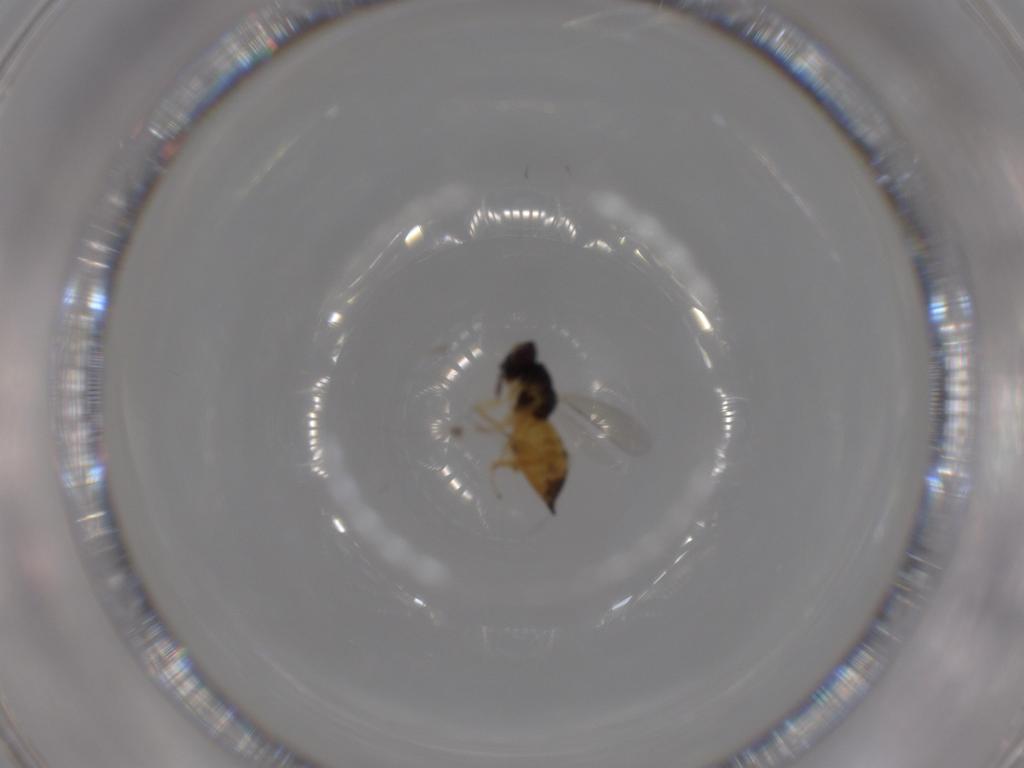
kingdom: Animalia
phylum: Arthropoda
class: Insecta
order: Hymenoptera
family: Eulophidae
